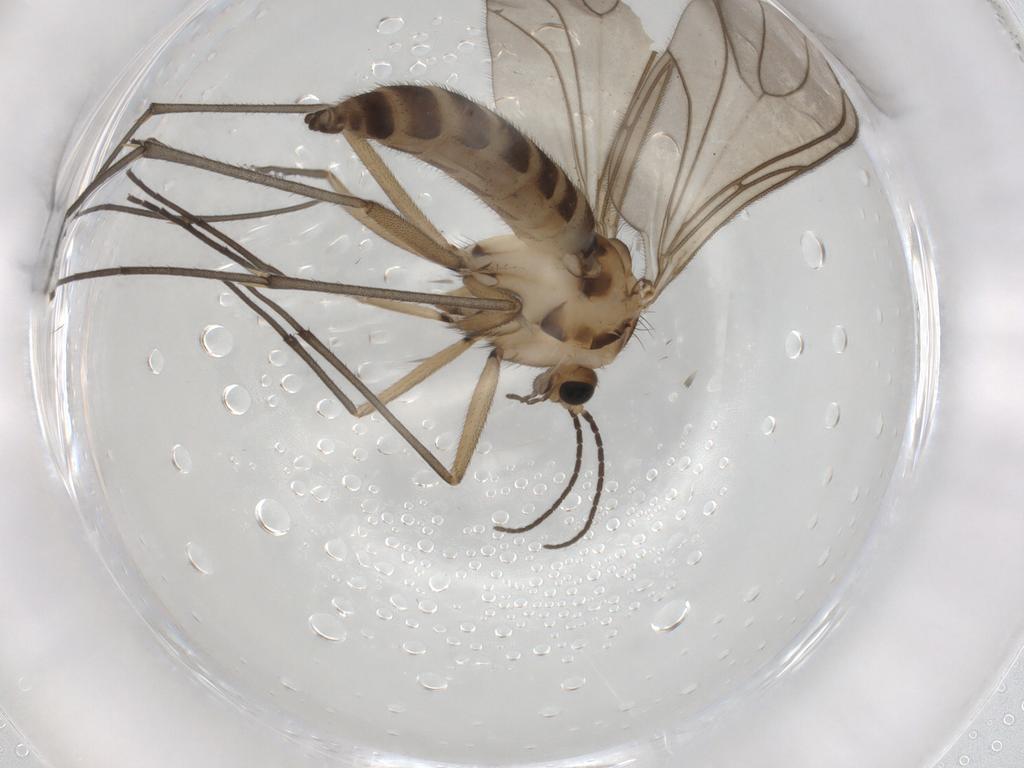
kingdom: Animalia
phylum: Arthropoda
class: Insecta
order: Diptera
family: Sciaridae
